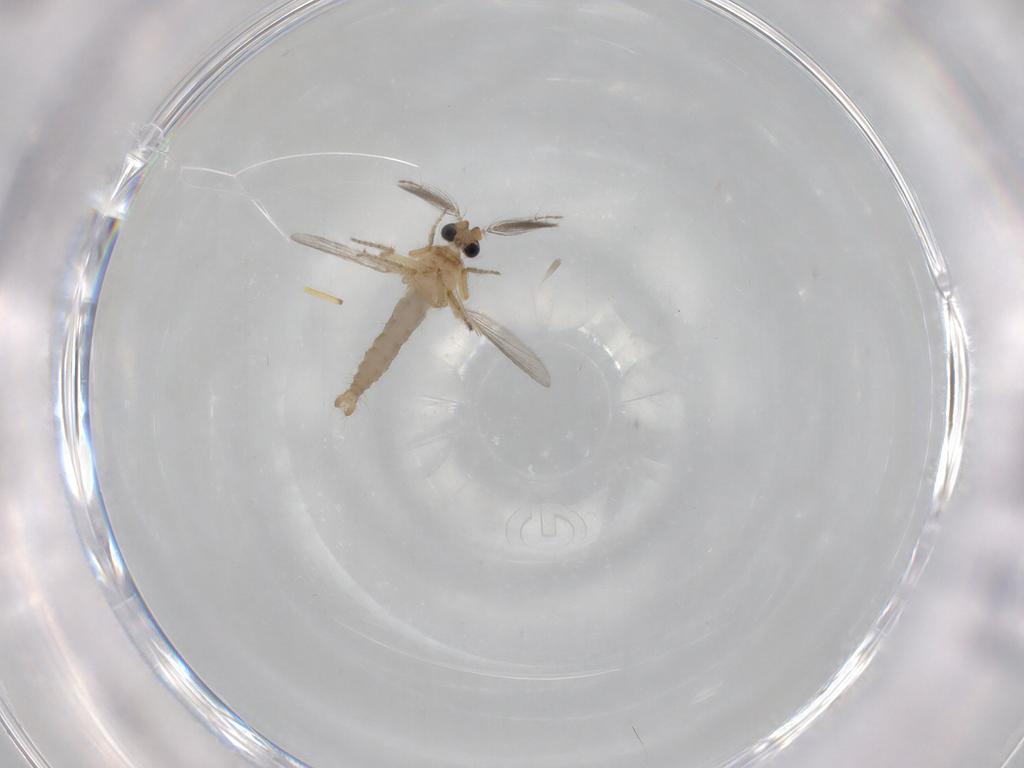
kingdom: Animalia
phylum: Arthropoda
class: Insecta
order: Diptera
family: Ceratopogonidae
